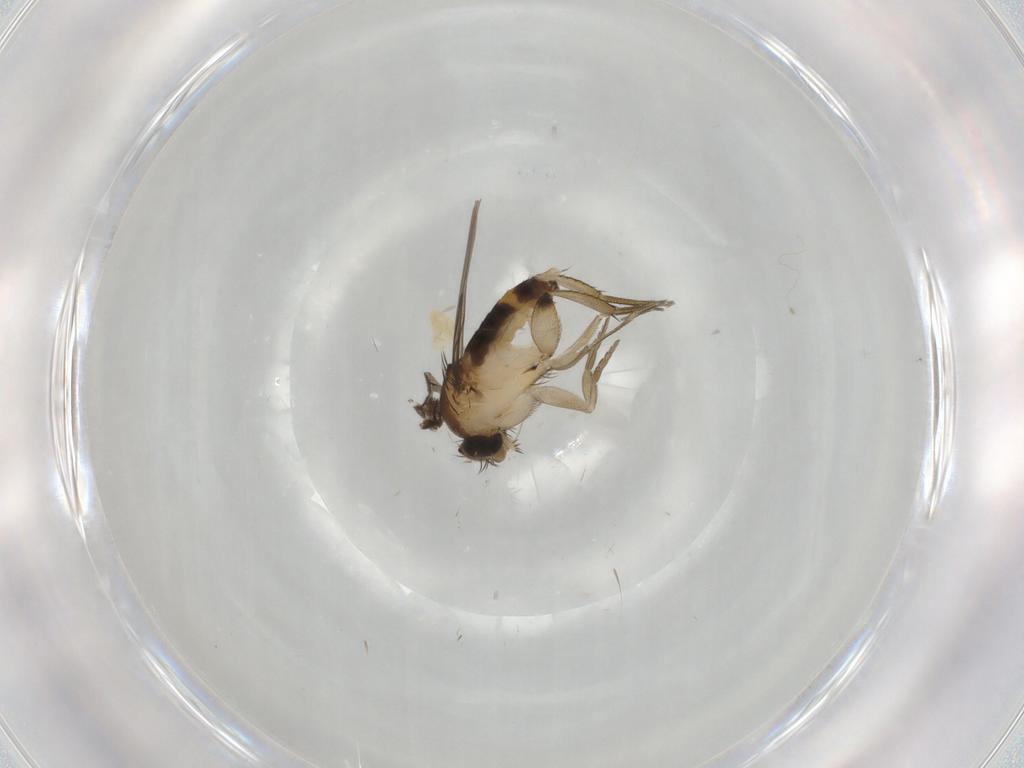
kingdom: Animalia
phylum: Arthropoda
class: Insecta
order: Diptera
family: Phoridae
